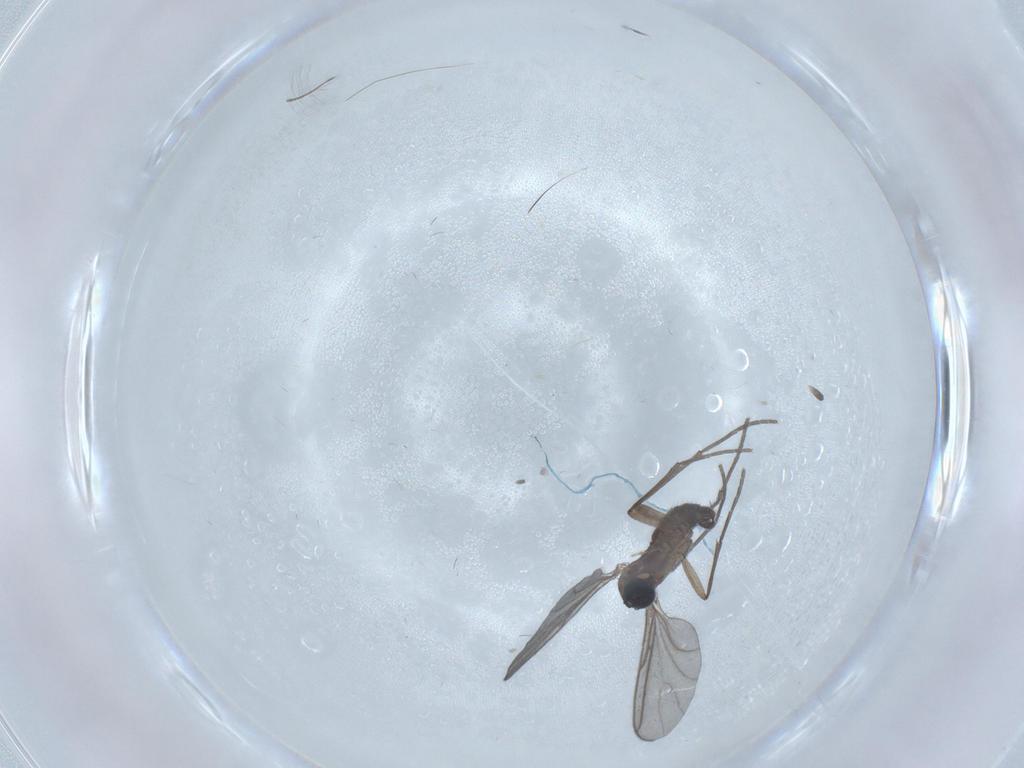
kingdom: Animalia
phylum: Arthropoda
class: Insecta
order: Diptera
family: Sciaridae
